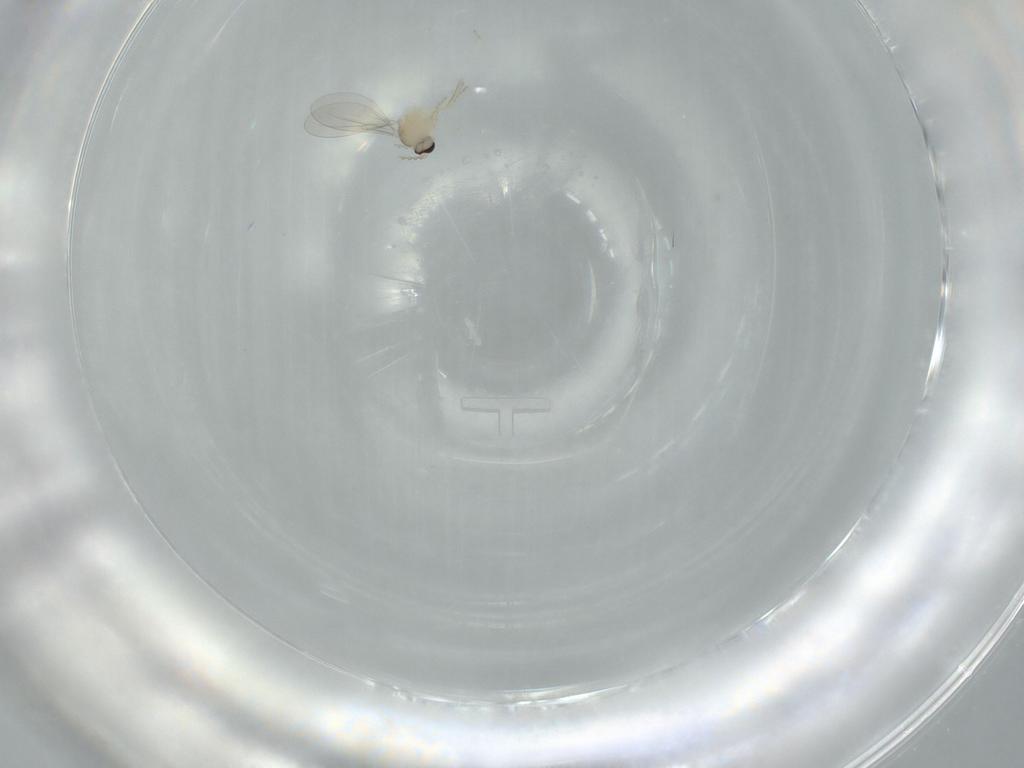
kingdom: Animalia
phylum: Arthropoda
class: Insecta
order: Diptera
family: Cecidomyiidae
